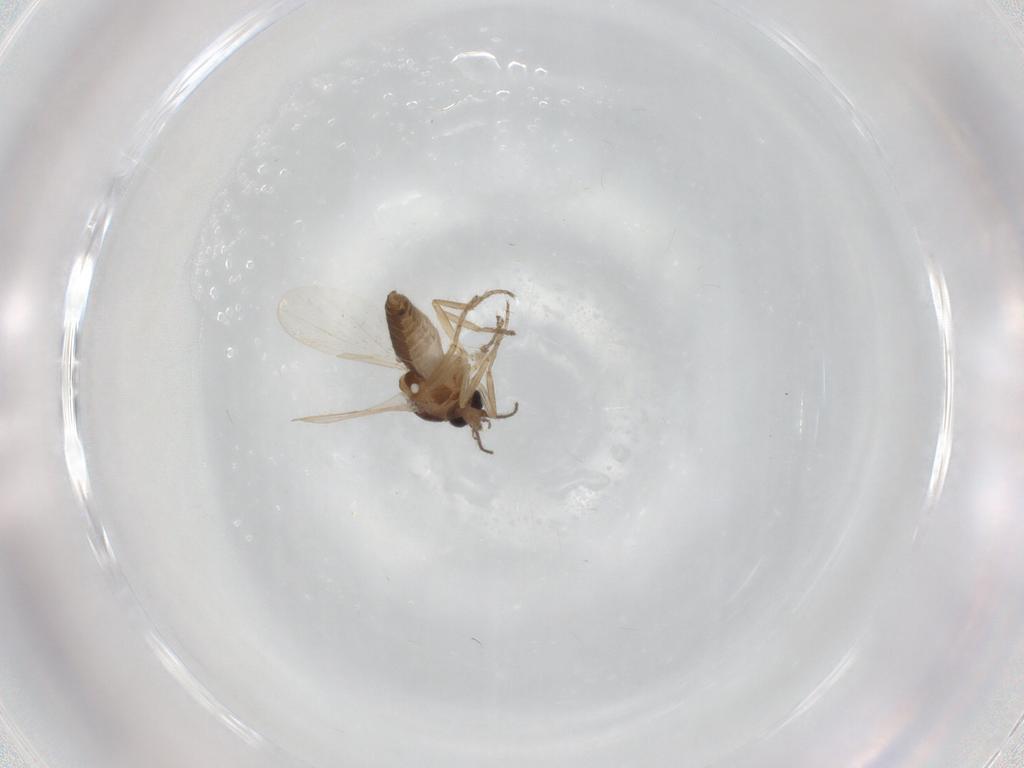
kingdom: Animalia
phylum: Arthropoda
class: Insecta
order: Diptera
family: Ceratopogonidae
